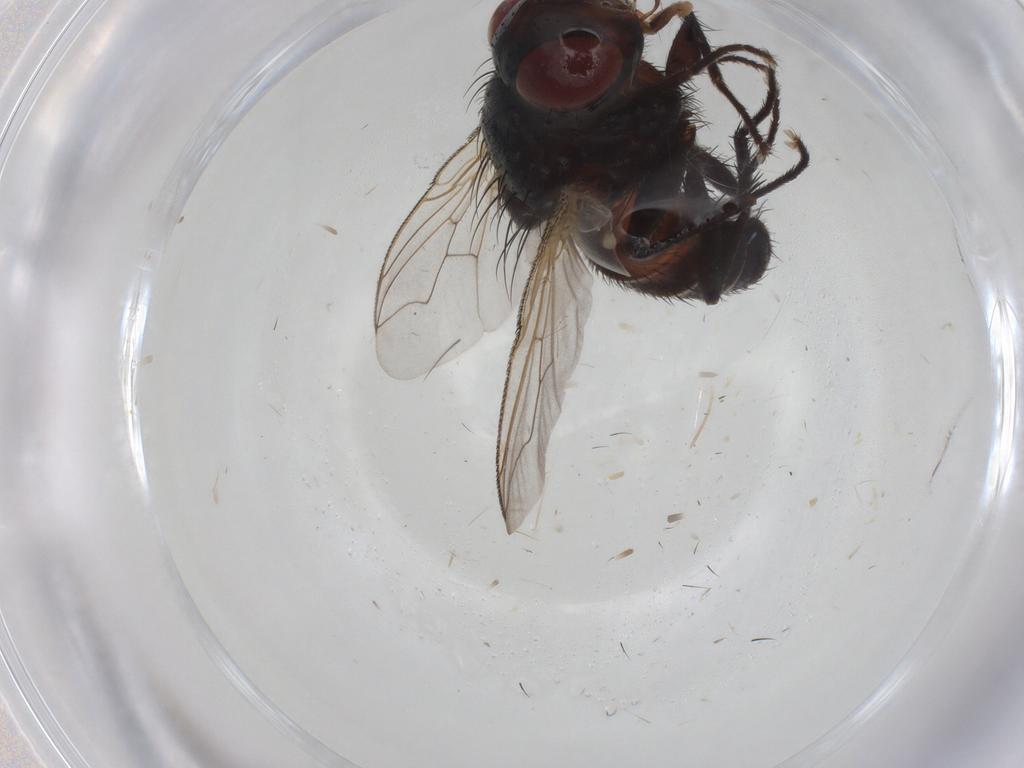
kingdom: Animalia
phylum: Arthropoda
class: Insecta
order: Diptera
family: Sarcophagidae
